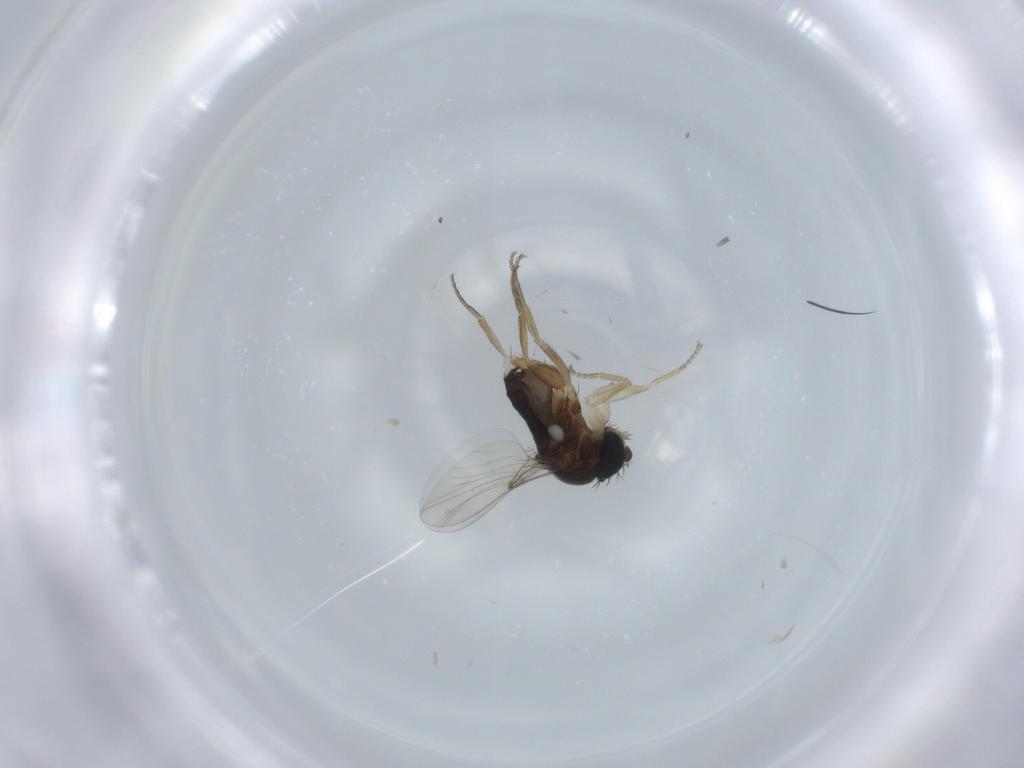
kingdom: Animalia
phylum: Arthropoda
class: Insecta
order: Diptera
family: Dolichopodidae
